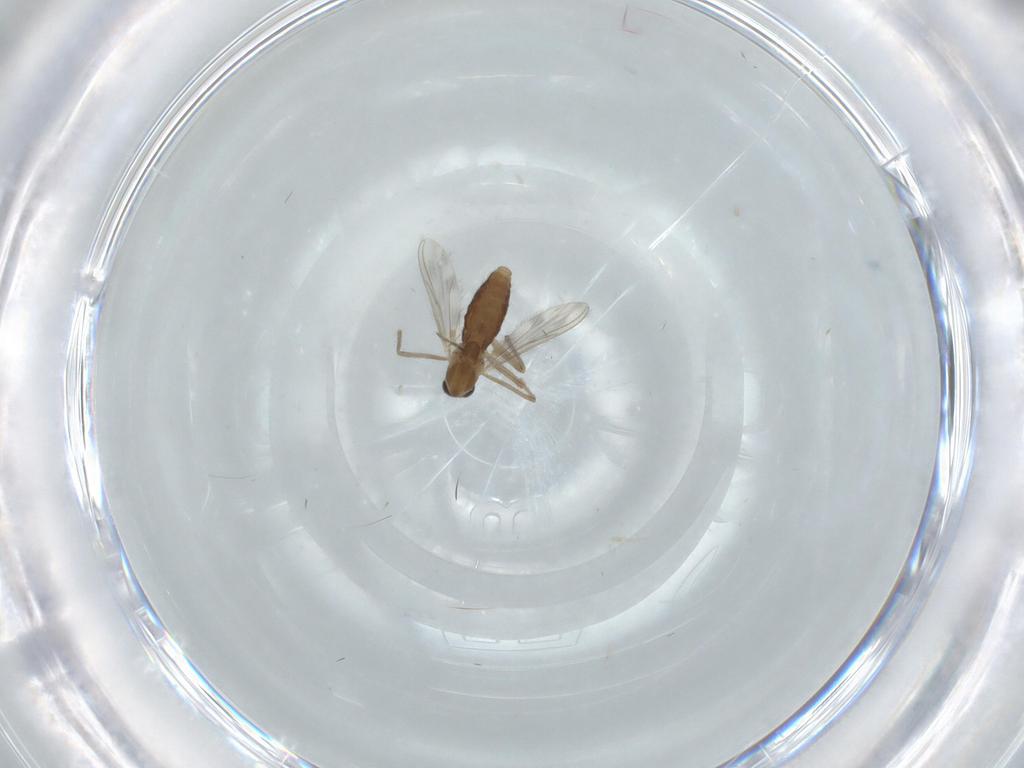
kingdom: Animalia
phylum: Arthropoda
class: Insecta
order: Diptera
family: Chironomidae
